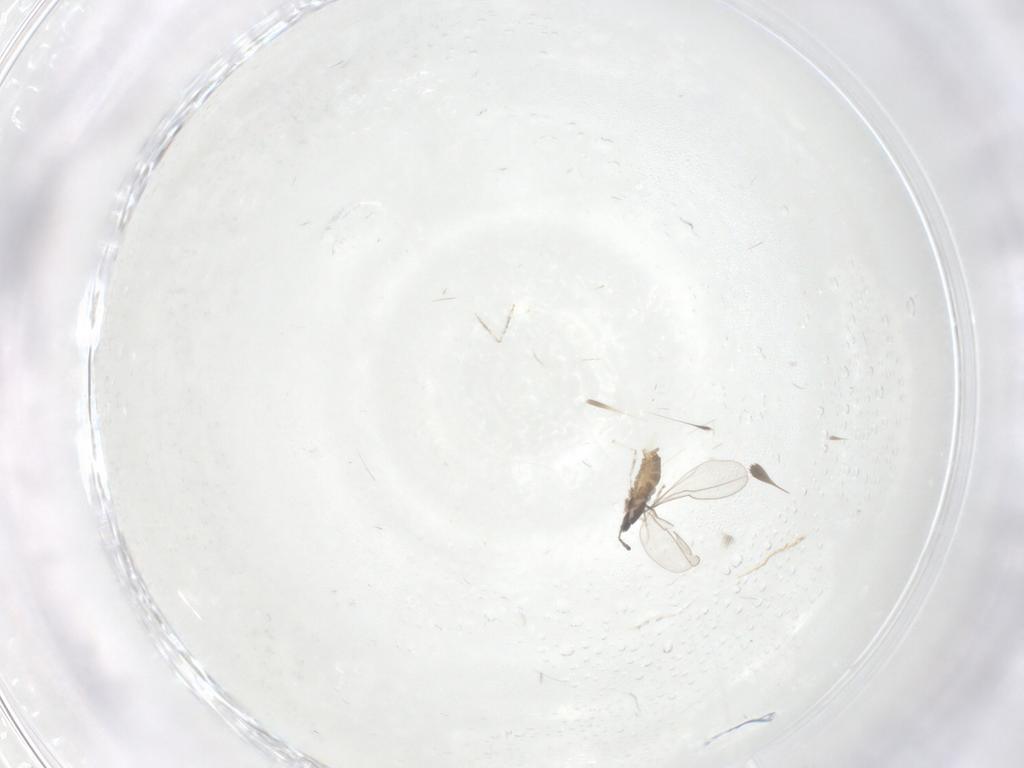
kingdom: Animalia
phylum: Arthropoda
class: Insecta
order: Diptera
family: Cecidomyiidae
